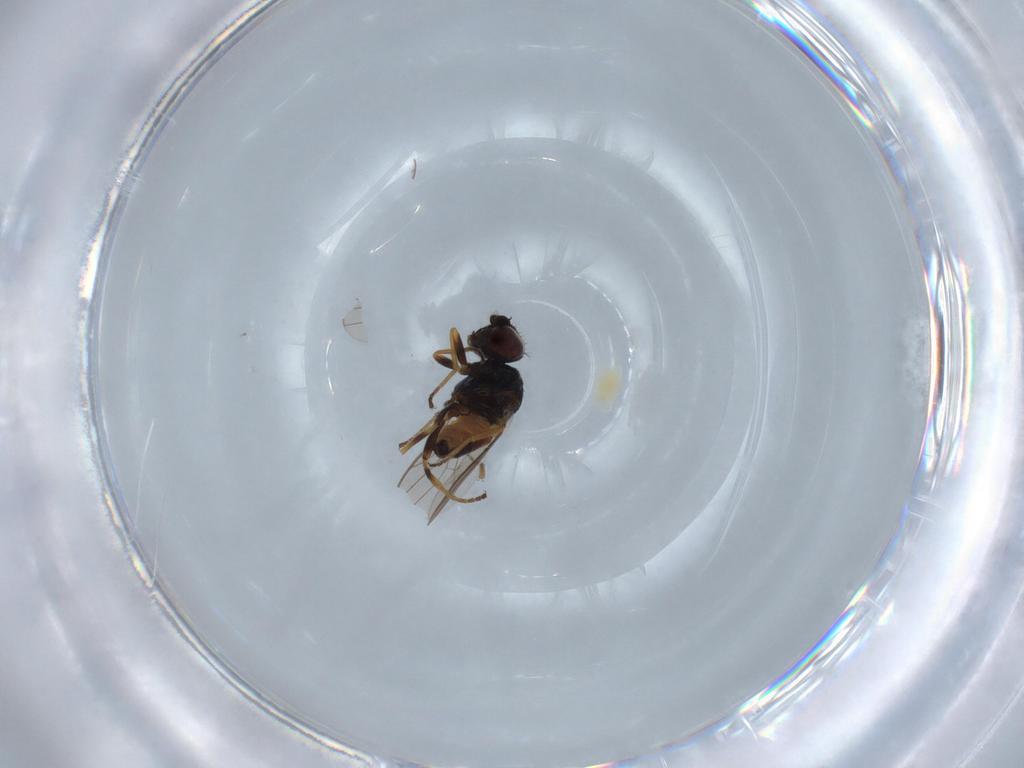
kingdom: Animalia
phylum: Arthropoda
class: Insecta
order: Diptera
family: Chloropidae
